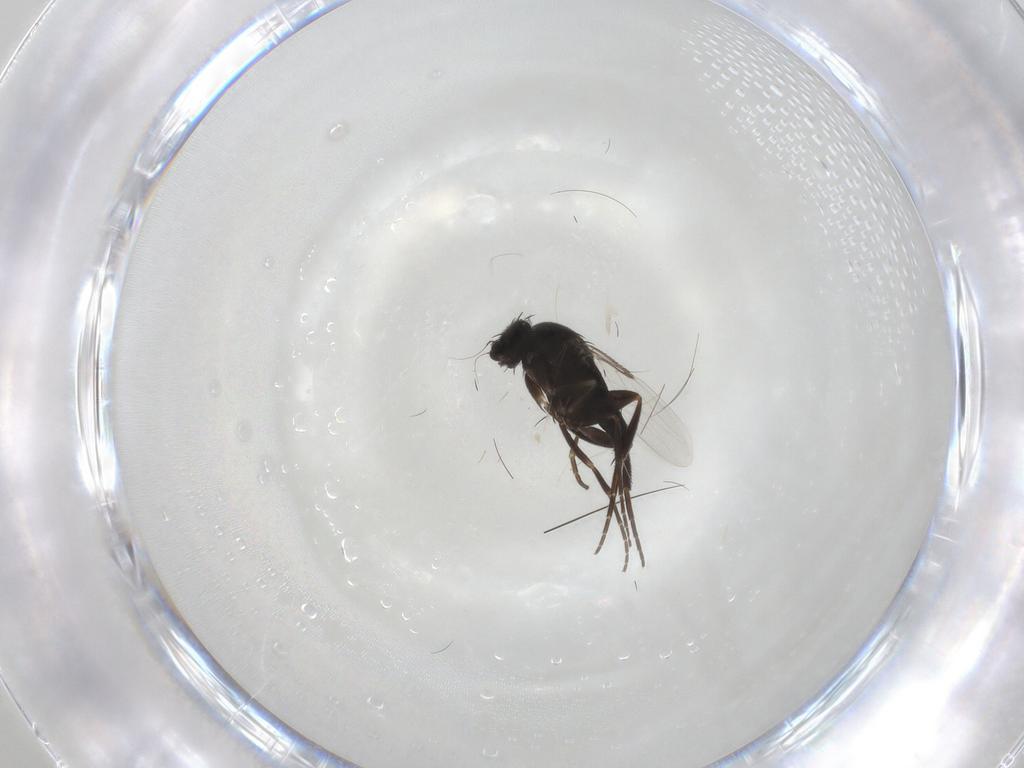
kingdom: Animalia
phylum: Arthropoda
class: Insecta
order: Diptera
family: Phoridae
